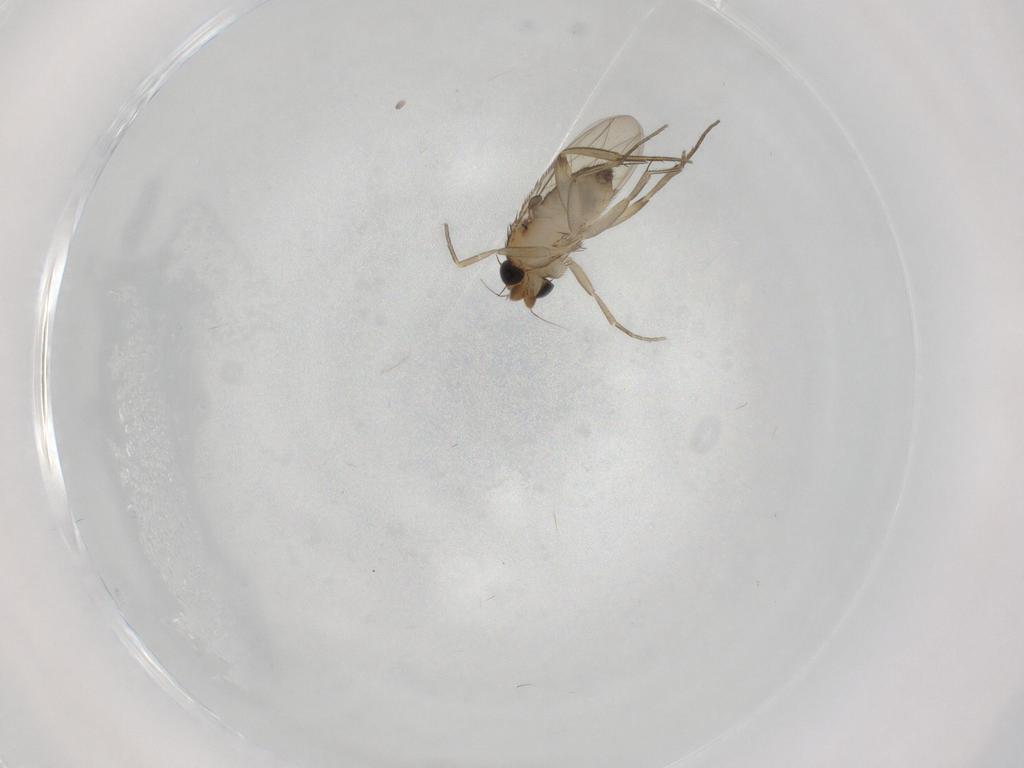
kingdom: Animalia
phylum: Arthropoda
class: Insecta
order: Diptera
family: Phoridae
